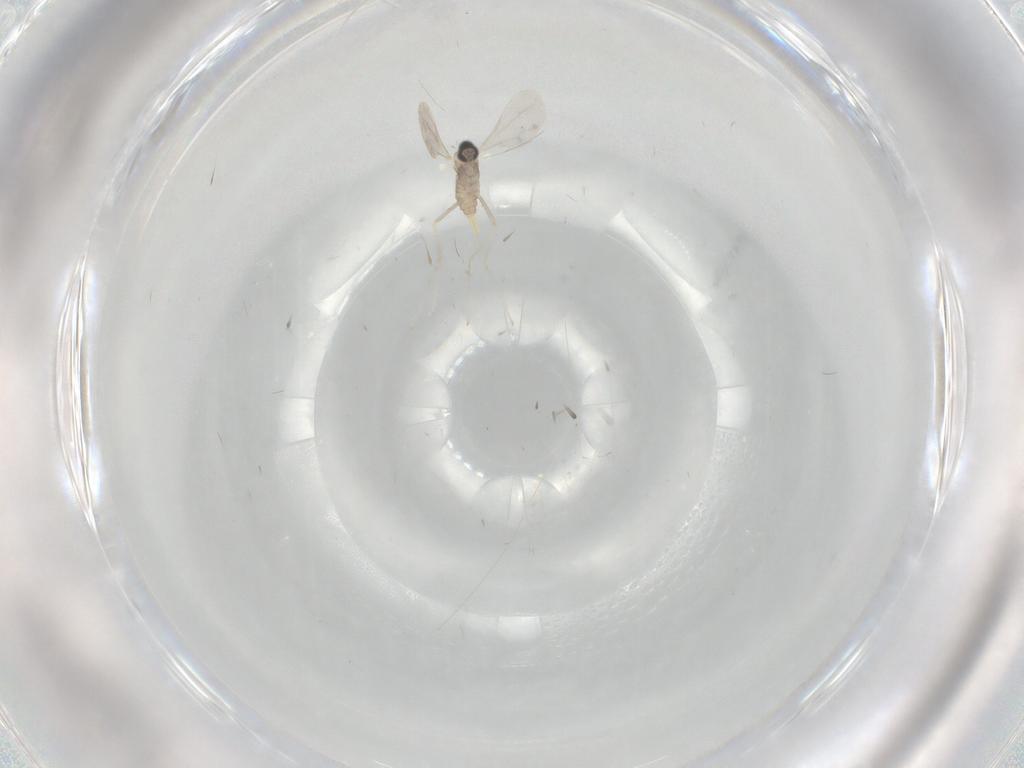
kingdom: Animalia
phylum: Arthropoda
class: Insecta
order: Diptera
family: Cecidomyiidae
